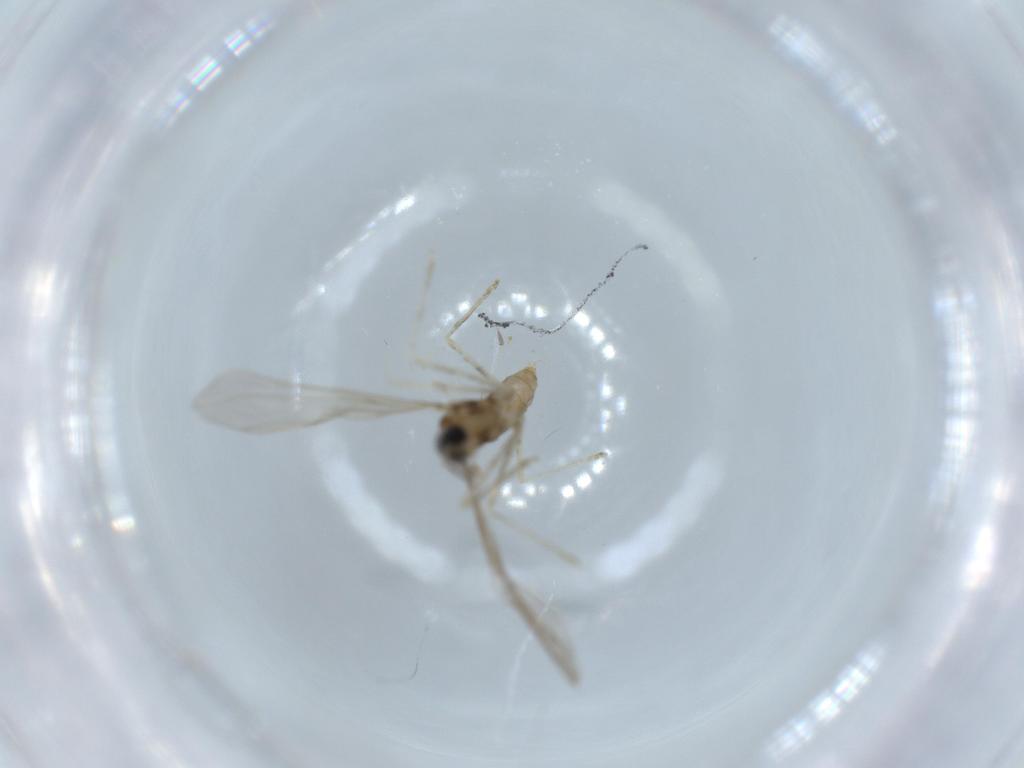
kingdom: Animalia
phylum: Arthropoda
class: Insecta
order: Diptera
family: Cecidomyiidae
